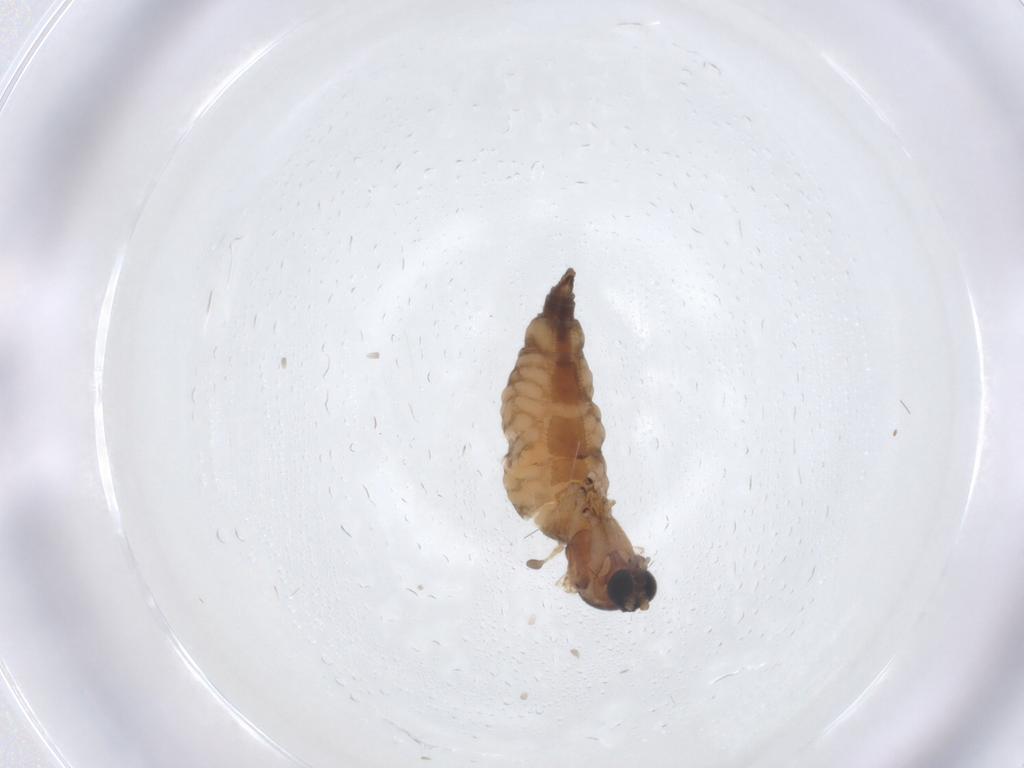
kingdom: Animalia
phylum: Arthropoda
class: Insecta
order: Diptera
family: Sciaridae
